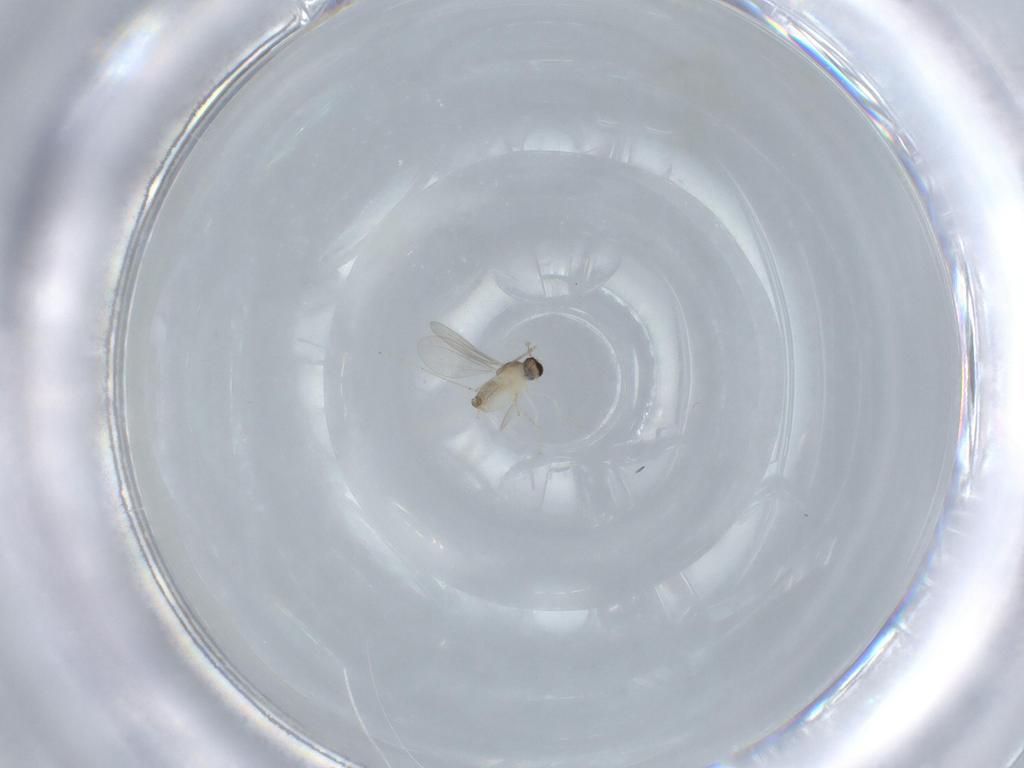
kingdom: Animalia
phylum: Arthropoda
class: Insecta
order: Diptera
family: Cecidomyiidae
